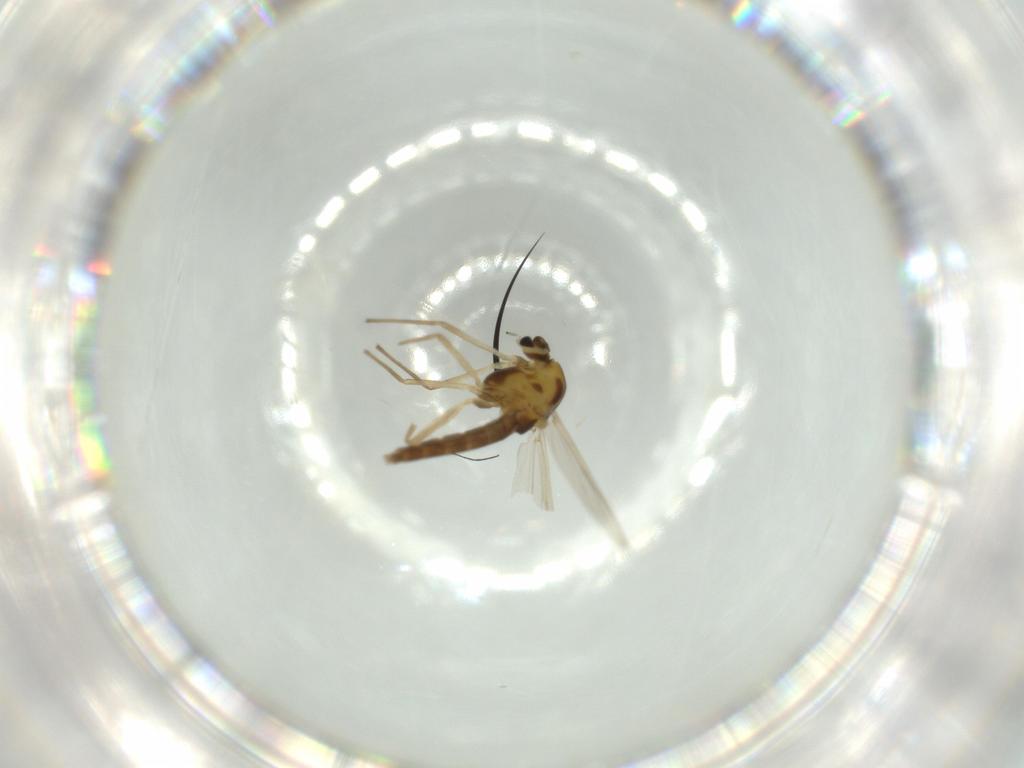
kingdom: Animalia
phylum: Arthropoda
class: Insecta
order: Diptera
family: Chironomidae
